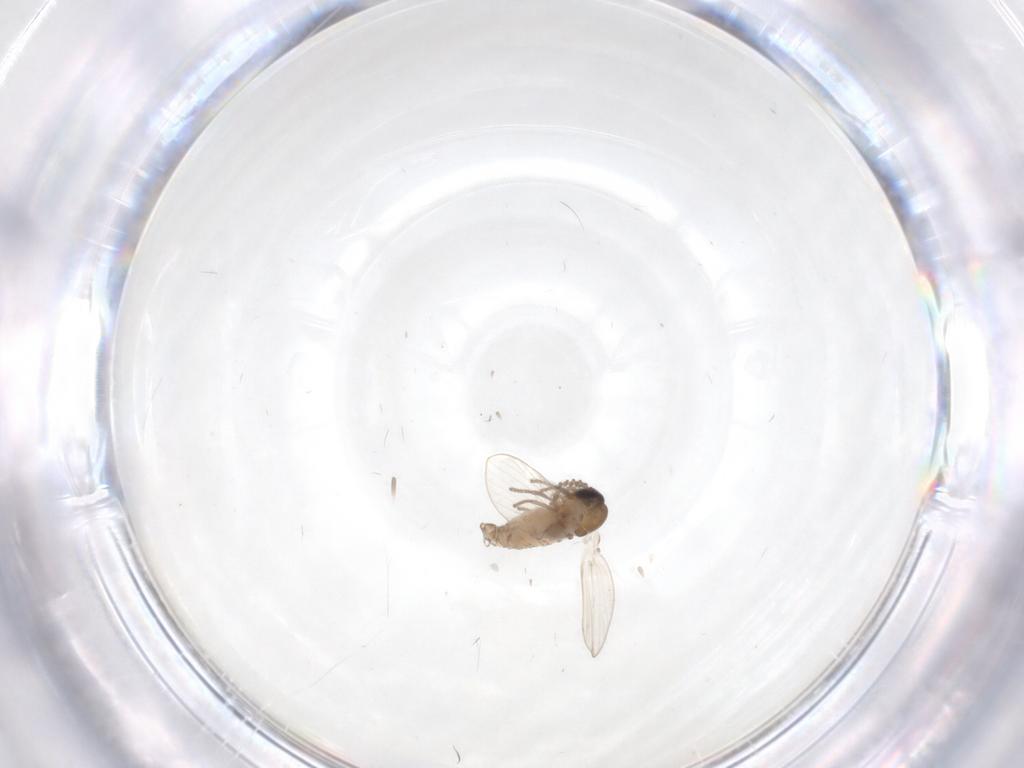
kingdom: Animalia
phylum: Arthropoda
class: Insecta
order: Diptera
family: Psychodidae
